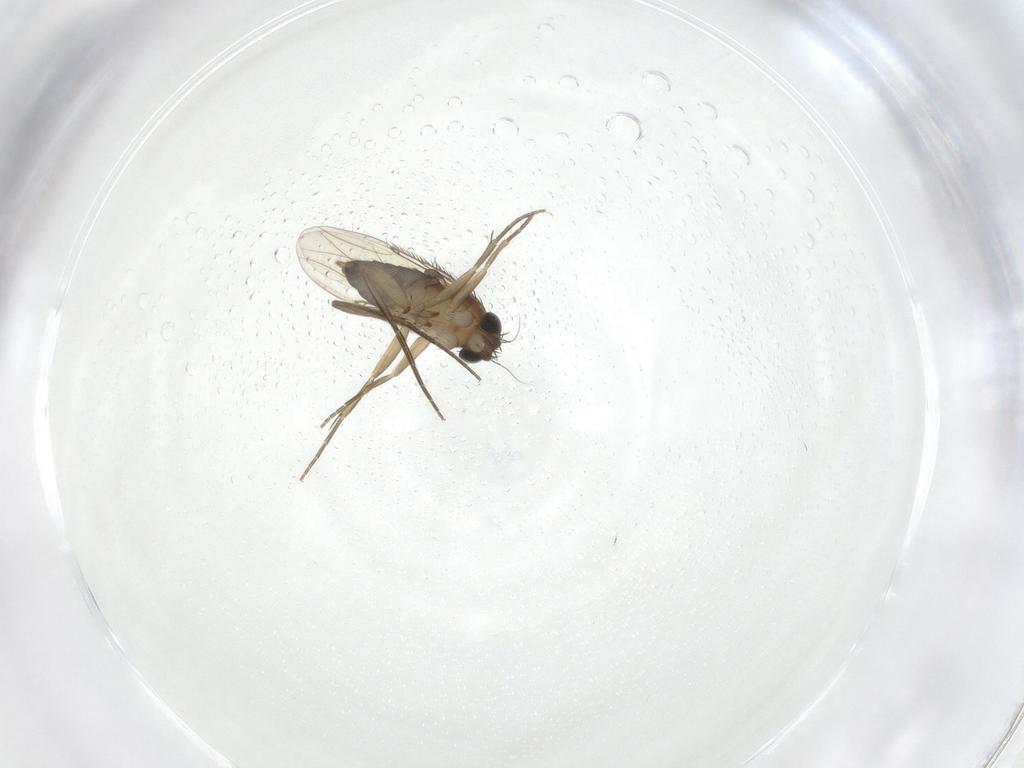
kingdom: Animalia
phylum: Arthropoda
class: Insecta
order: Diptera
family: Phoridae
